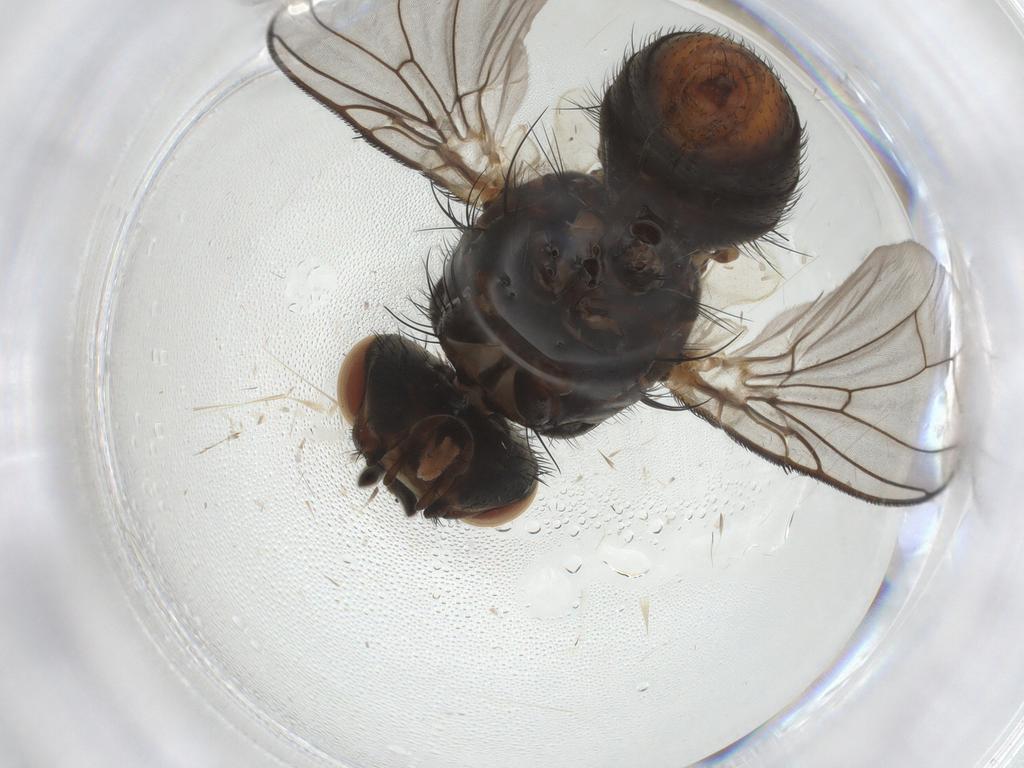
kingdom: Animalia
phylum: Arthropoda
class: Insecta
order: Diptera
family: Sarcophagidae
